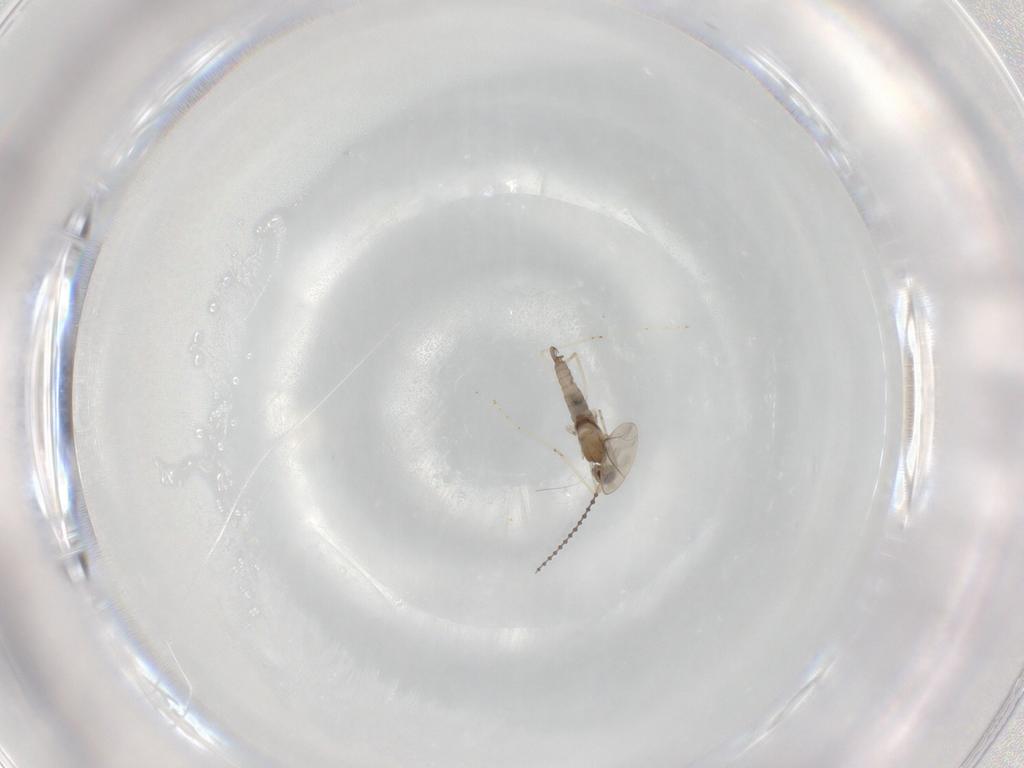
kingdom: Animalia
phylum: Arthropoda
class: Insecta
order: Diptera
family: Cecidomyiidae
